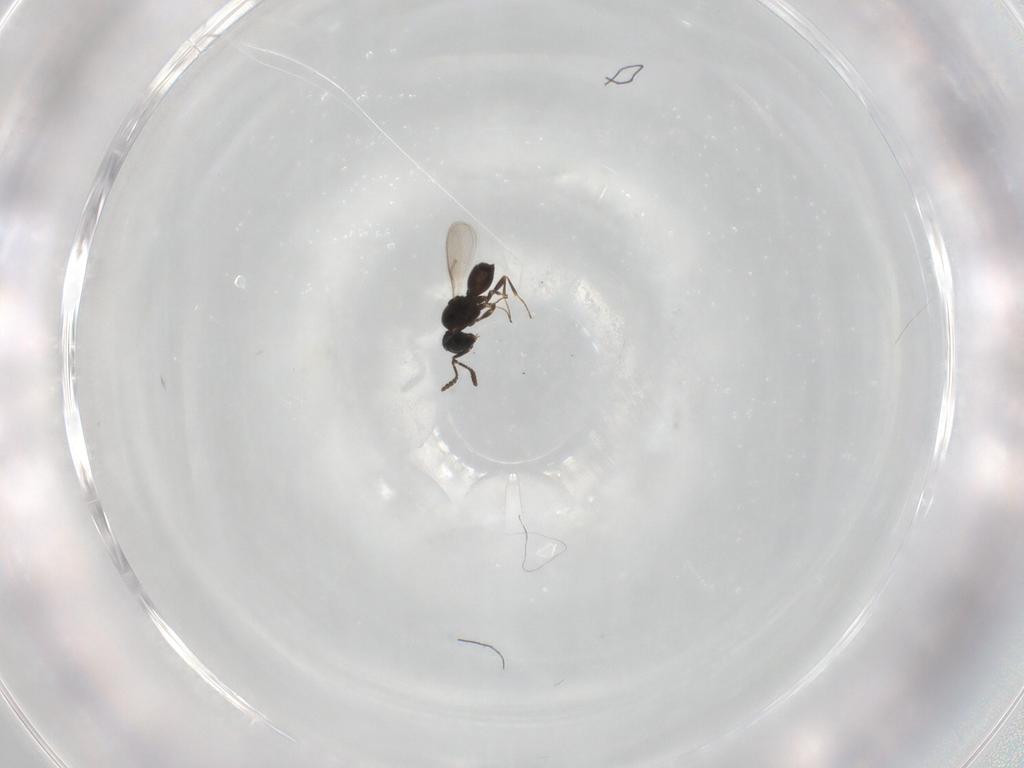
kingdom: Animalia
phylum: Arthropoda
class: Insecta
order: Hymenoptera
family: Scelionidae
